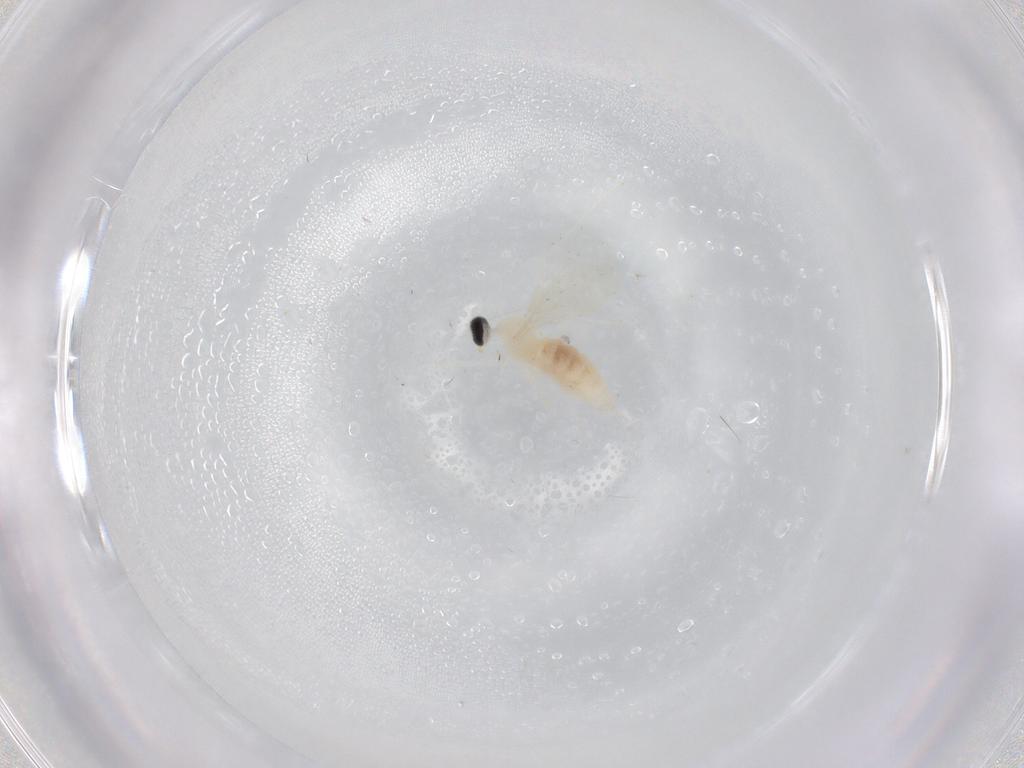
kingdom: Animalia
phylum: Arthropoda
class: Insecta
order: Diptera
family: Cecidomyiidae
